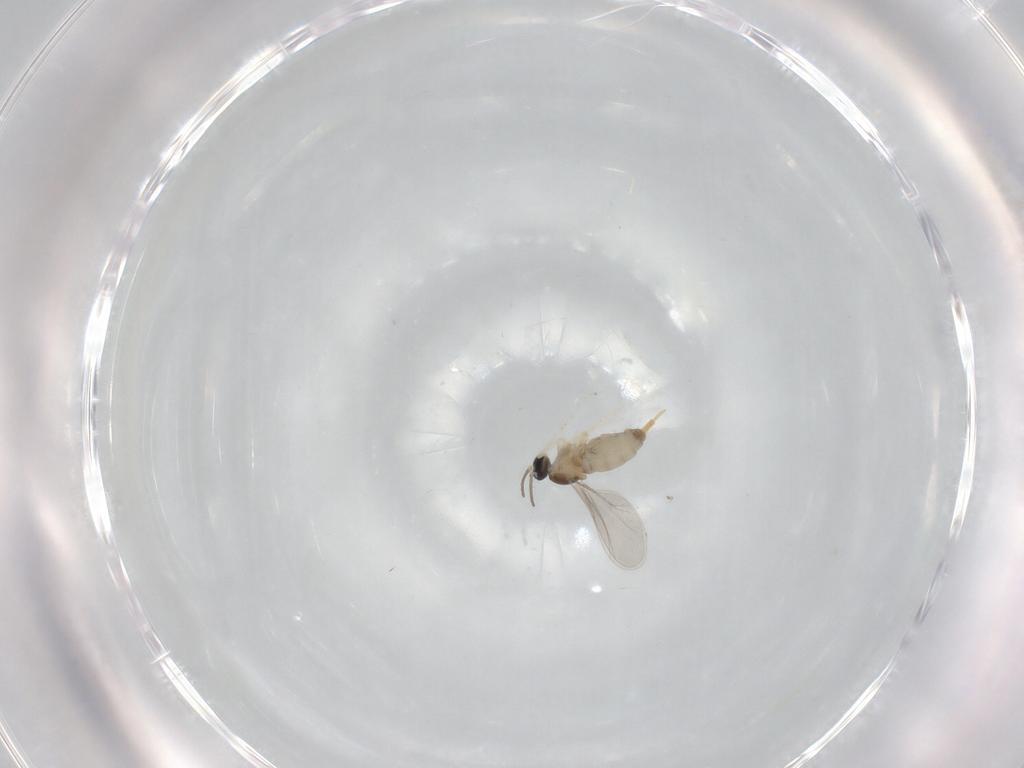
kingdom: Animalia
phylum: Arthropoda
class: Insecta
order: Diptera
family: Cecidomyiidae
